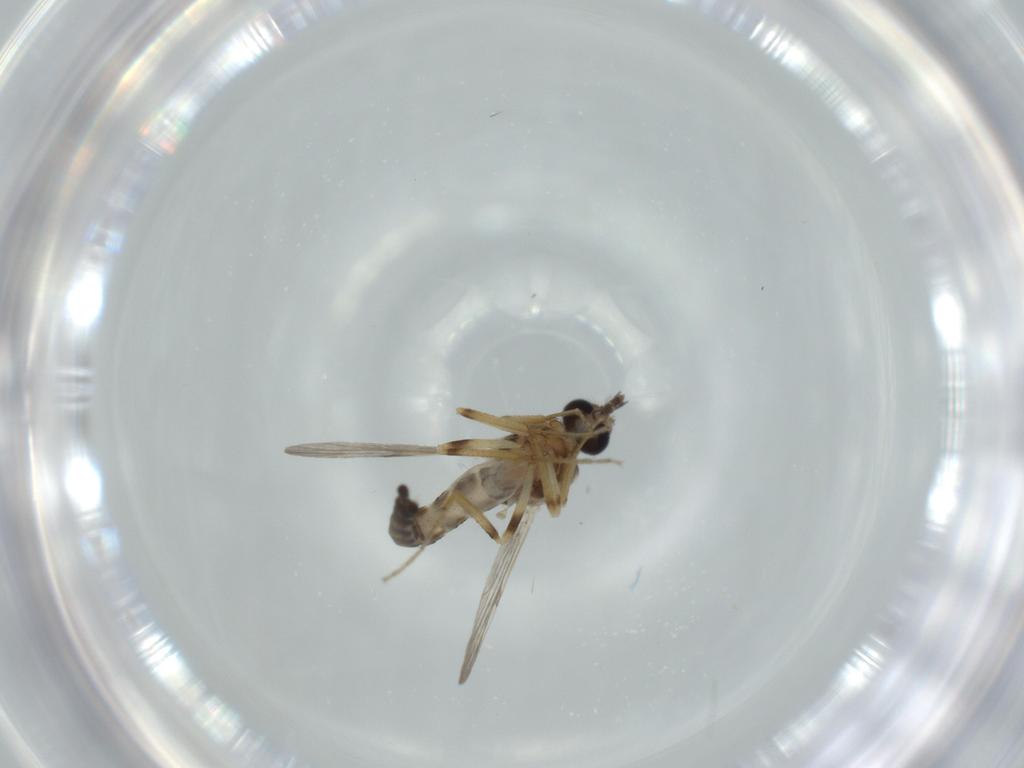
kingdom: Animalia
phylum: Arthropoda
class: Insecta
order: Diptera
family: Ceratopogonidae
